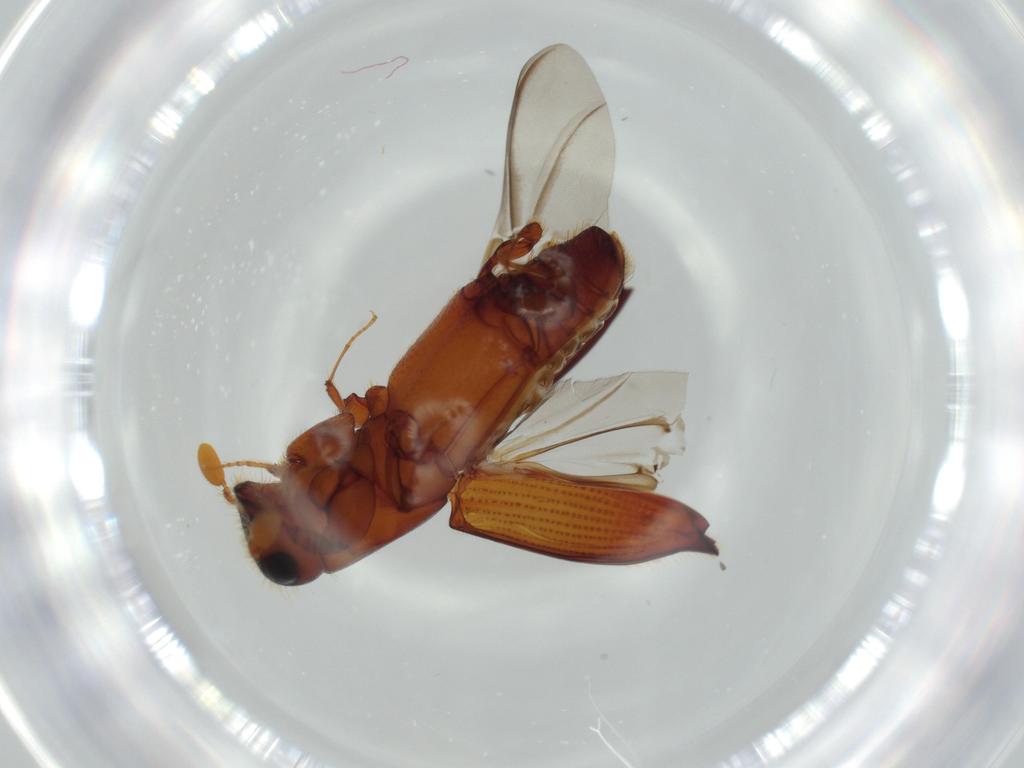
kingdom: Animalia
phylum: Arthropoda
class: Insecta
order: Coleoptera
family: Curculionidae
